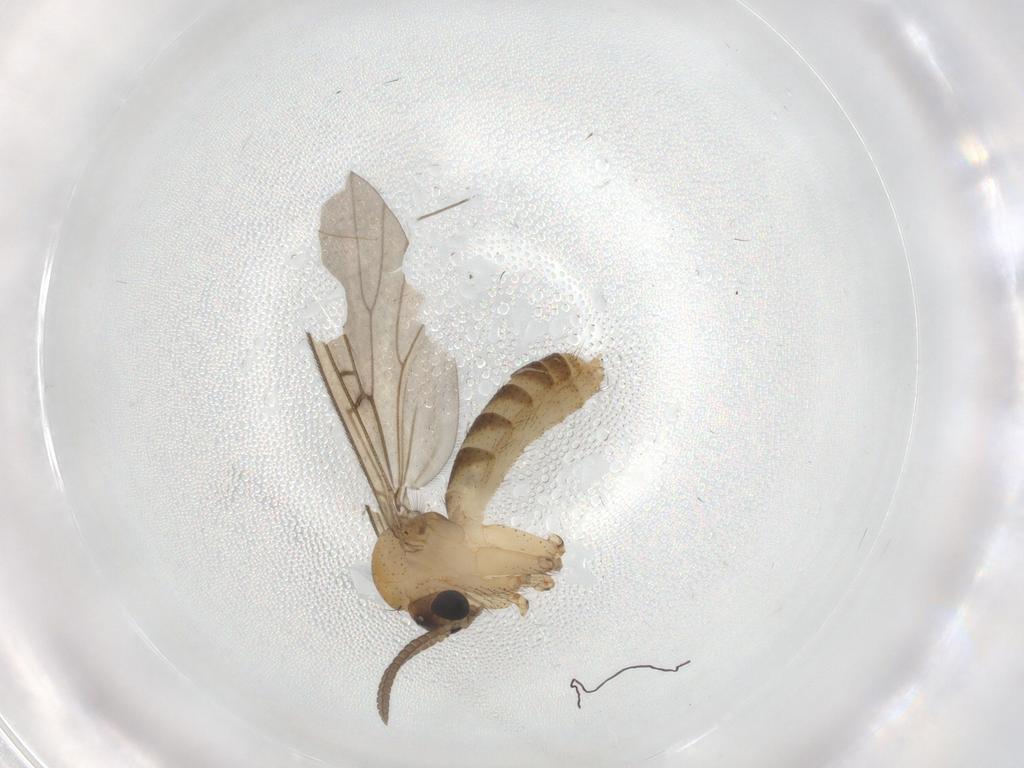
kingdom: Animalia
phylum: Arthropoda
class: Insecta
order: Diptera
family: Mycetophilidae
